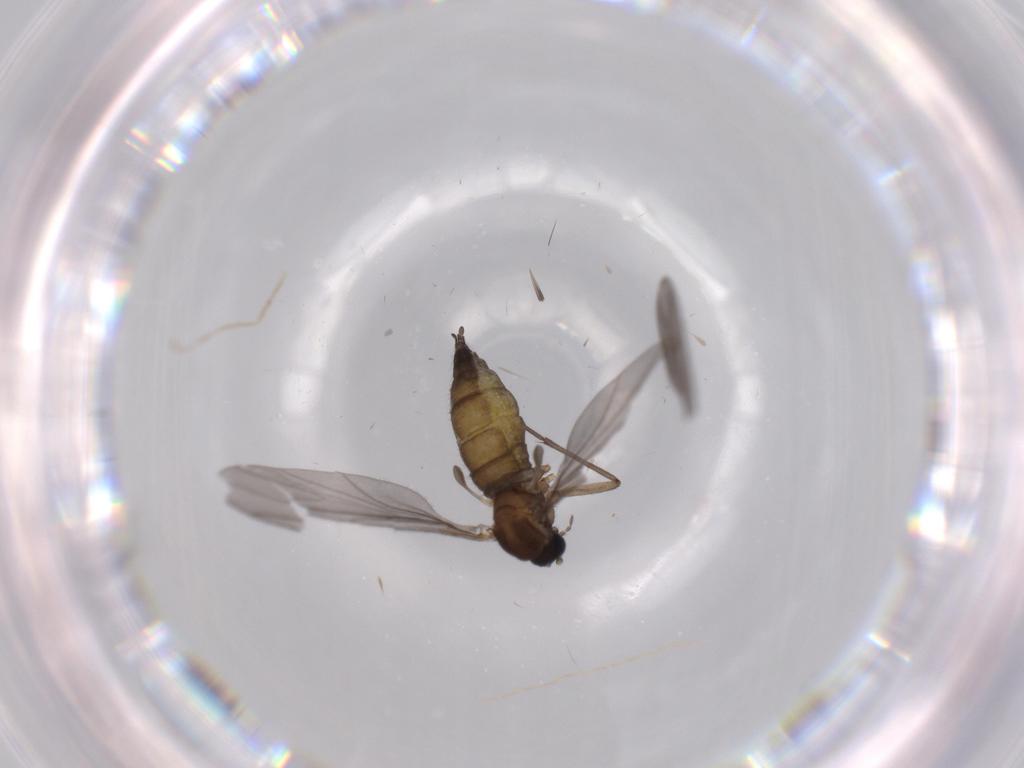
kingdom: Animalia
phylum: Arthropoda
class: Insecta
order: Diptera
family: Sciaridae
